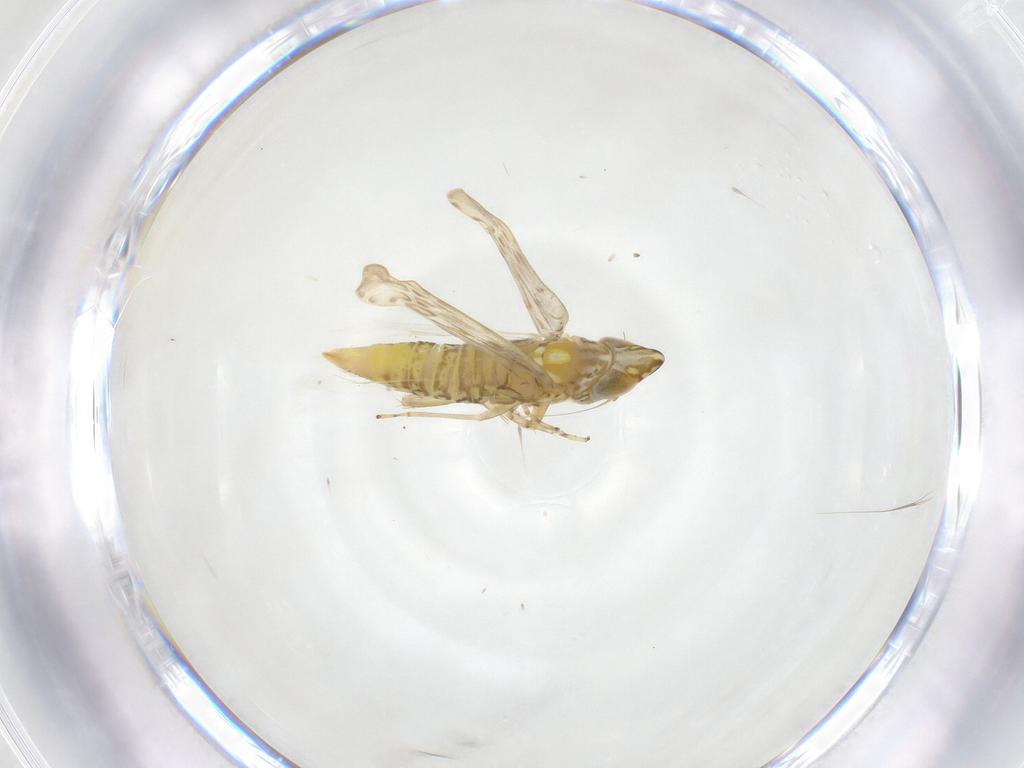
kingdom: Animalia
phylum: Arthropoda
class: Insecta
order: Hemiptera
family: Cicadellidae
